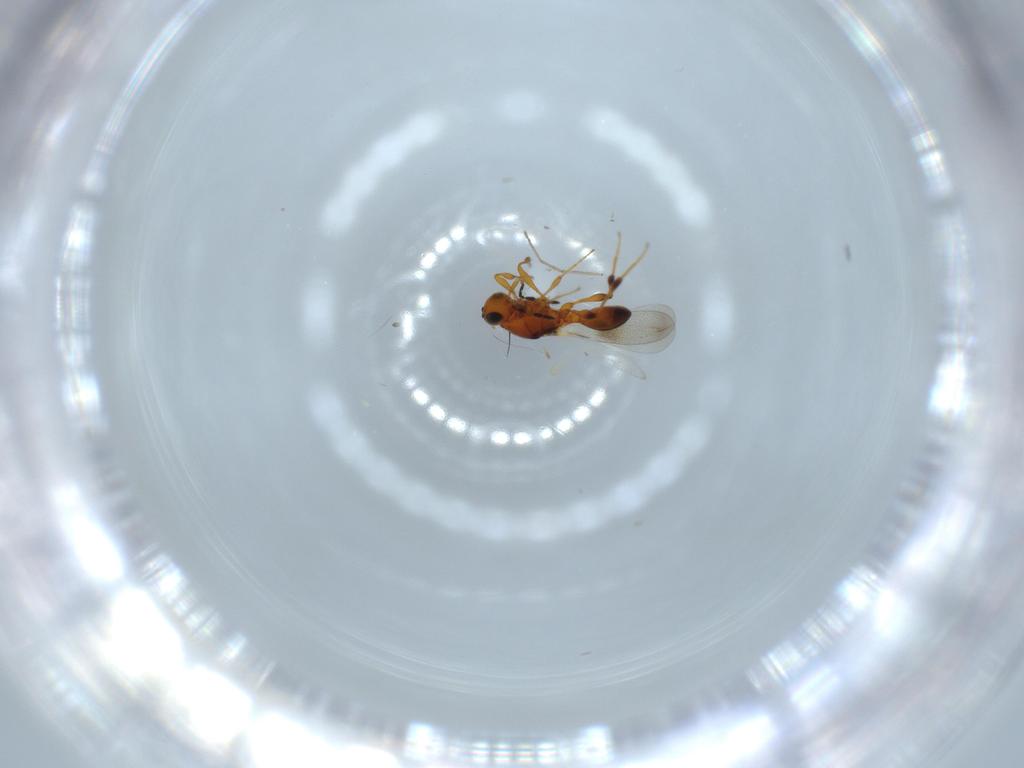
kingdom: Animalia
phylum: Arthropoda
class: Insecta
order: Hymenoptera
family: Platygastridae
